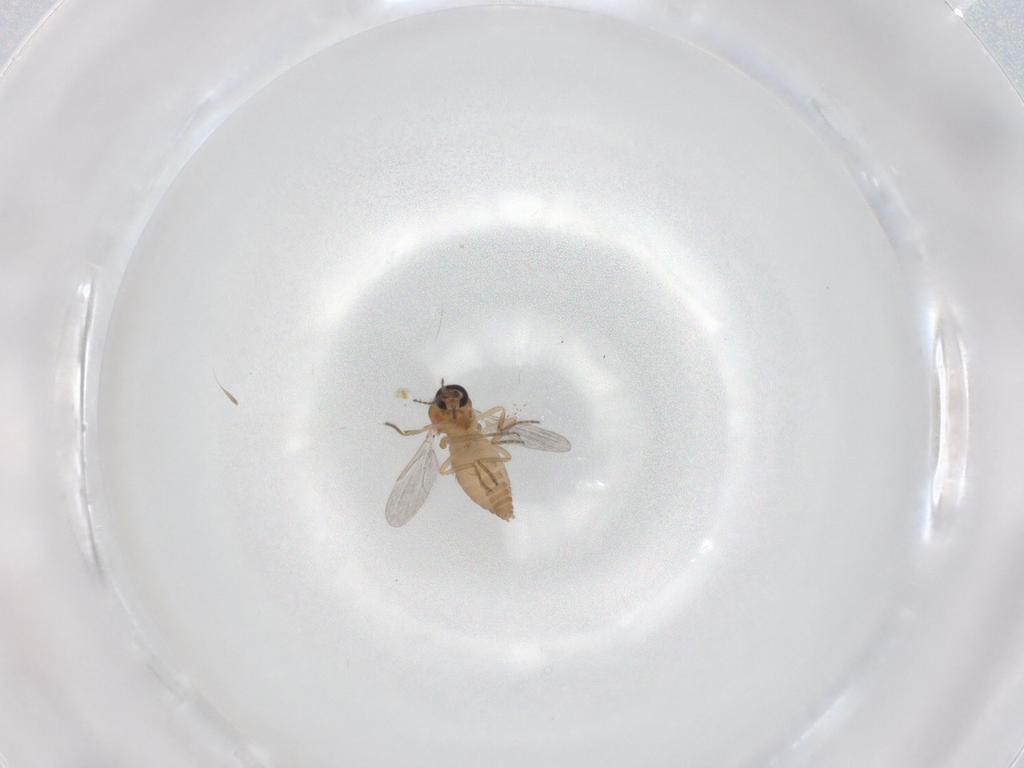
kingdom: Animalia
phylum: Arthropoda
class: Insecta
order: Diptera
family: Ceratopogonidae
